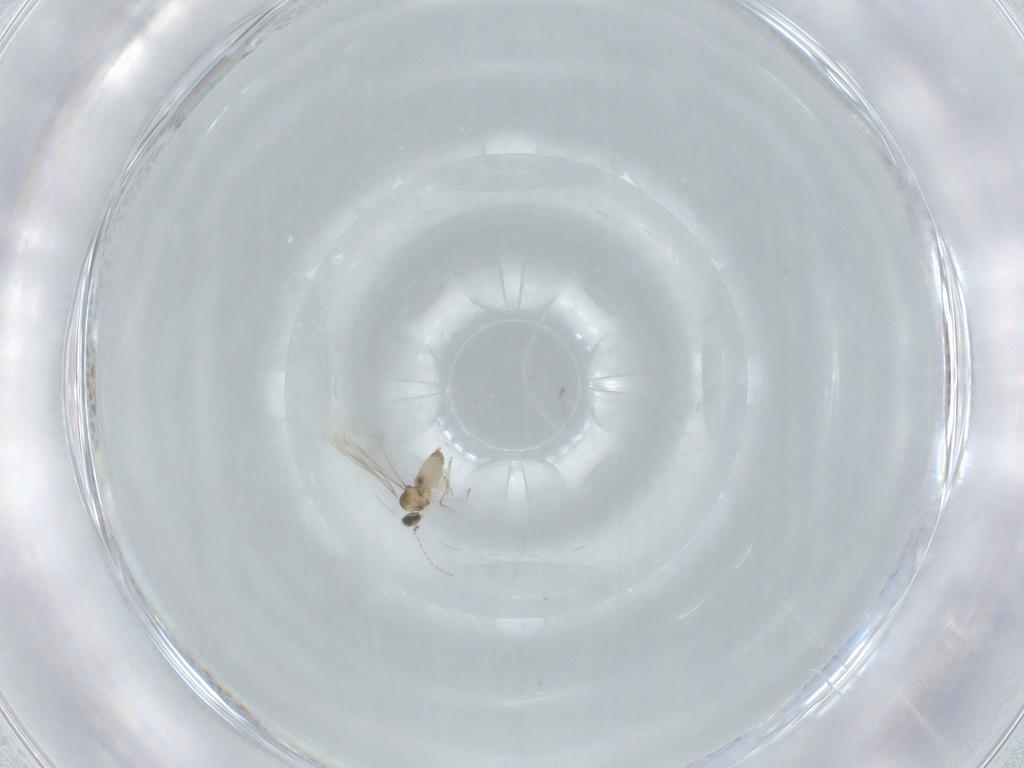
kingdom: Animalia
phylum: Arthropoda
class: Insecta
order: Diptera
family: Cecidomyiidae
